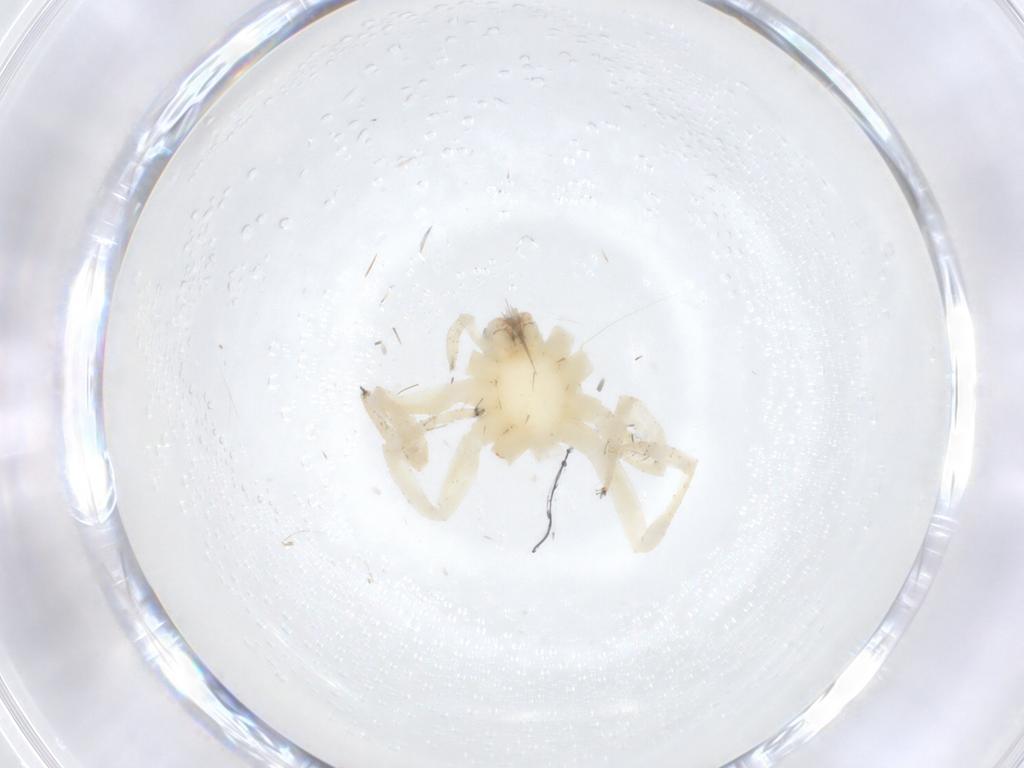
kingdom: Animalia
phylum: Arthropoda
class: Arachnida
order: Araneae
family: Anyphaenidae
